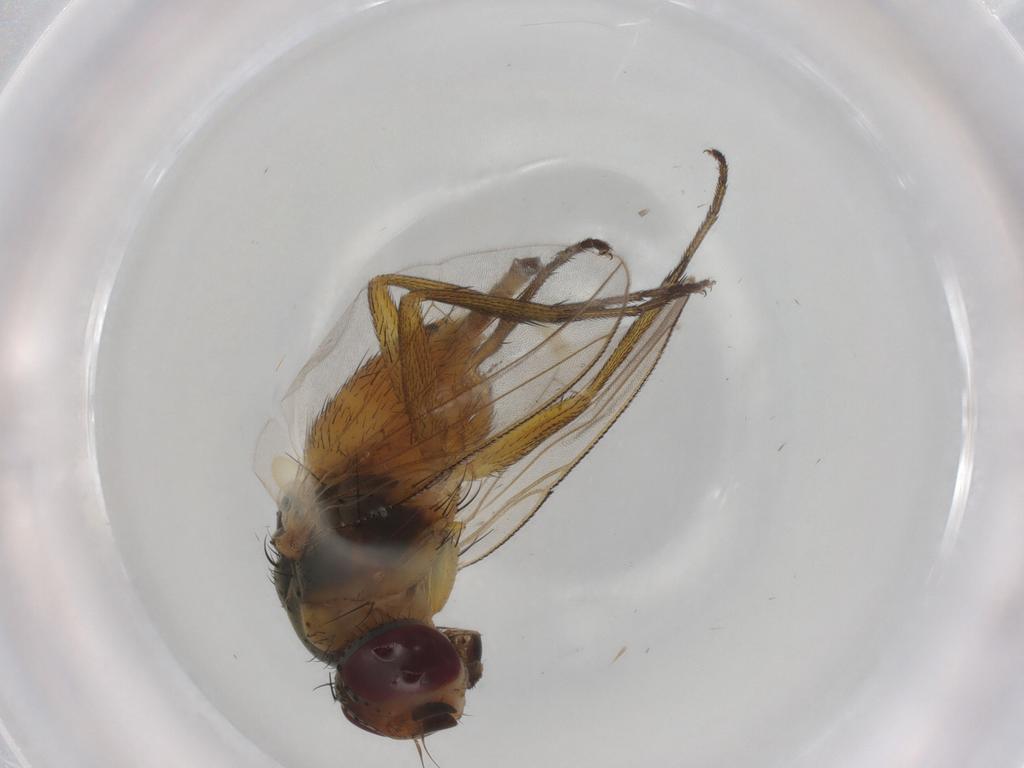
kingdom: Animalia
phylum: Arthropoda
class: Insecta
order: Diptera
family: Muscidae
